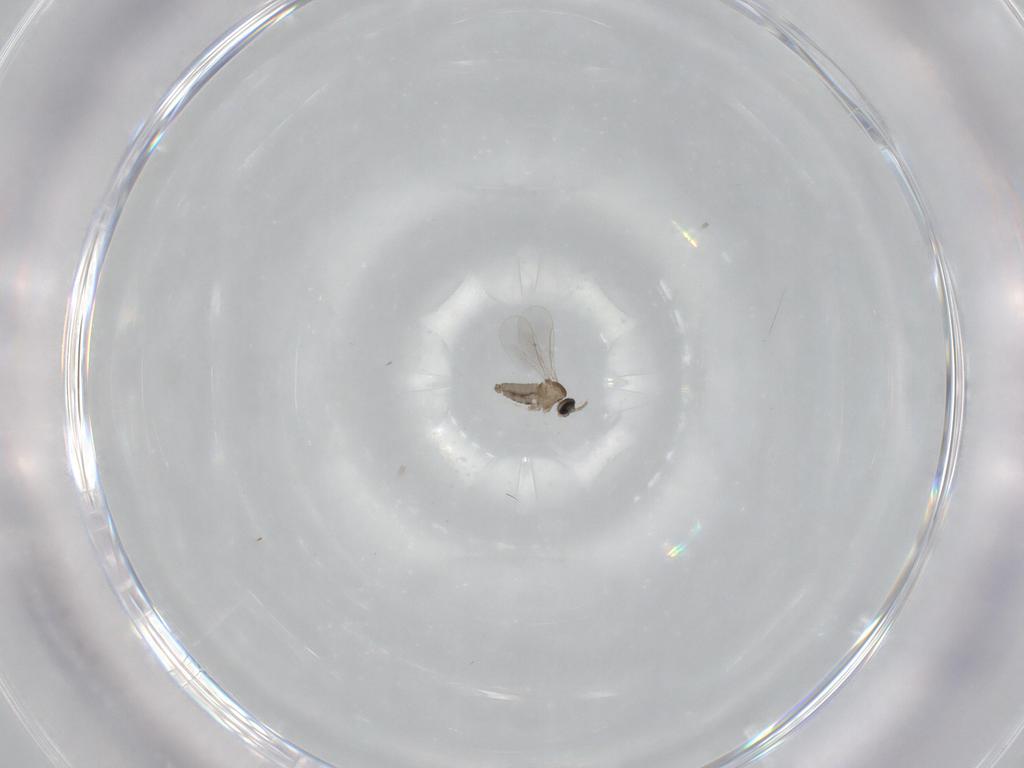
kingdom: Animalia
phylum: Arthropoda
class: Insecta
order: Diptera
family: Cecidomyiidae
